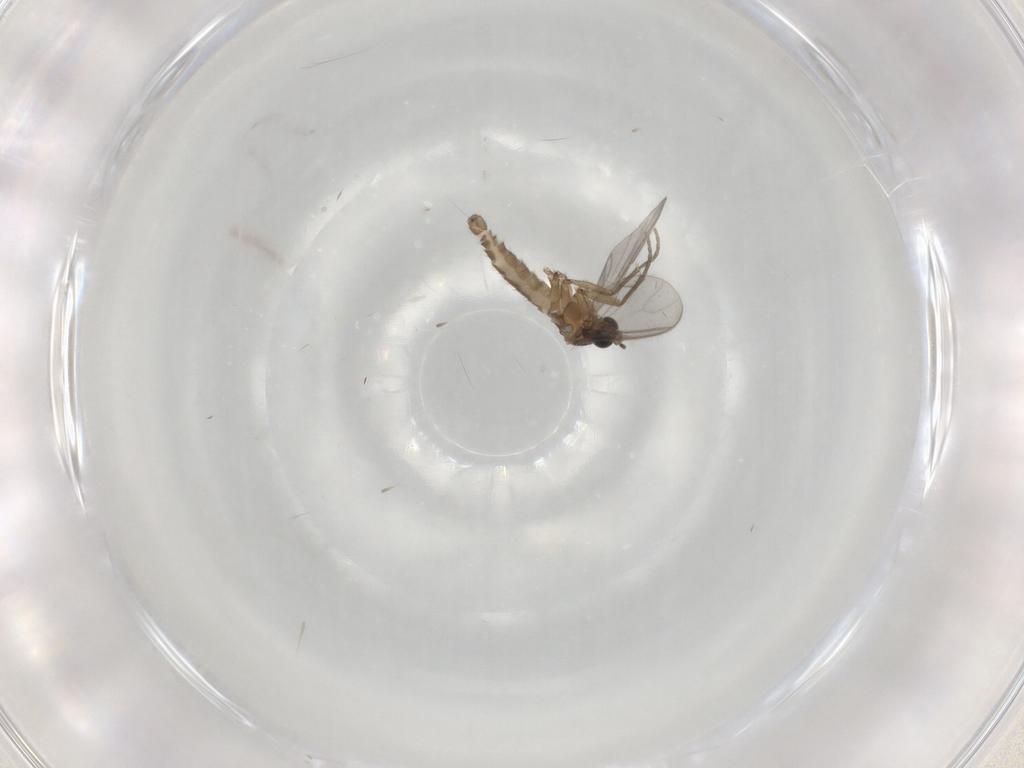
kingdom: Animalia
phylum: Arthropoda
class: Insecta
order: Diptera
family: Sciaridae
